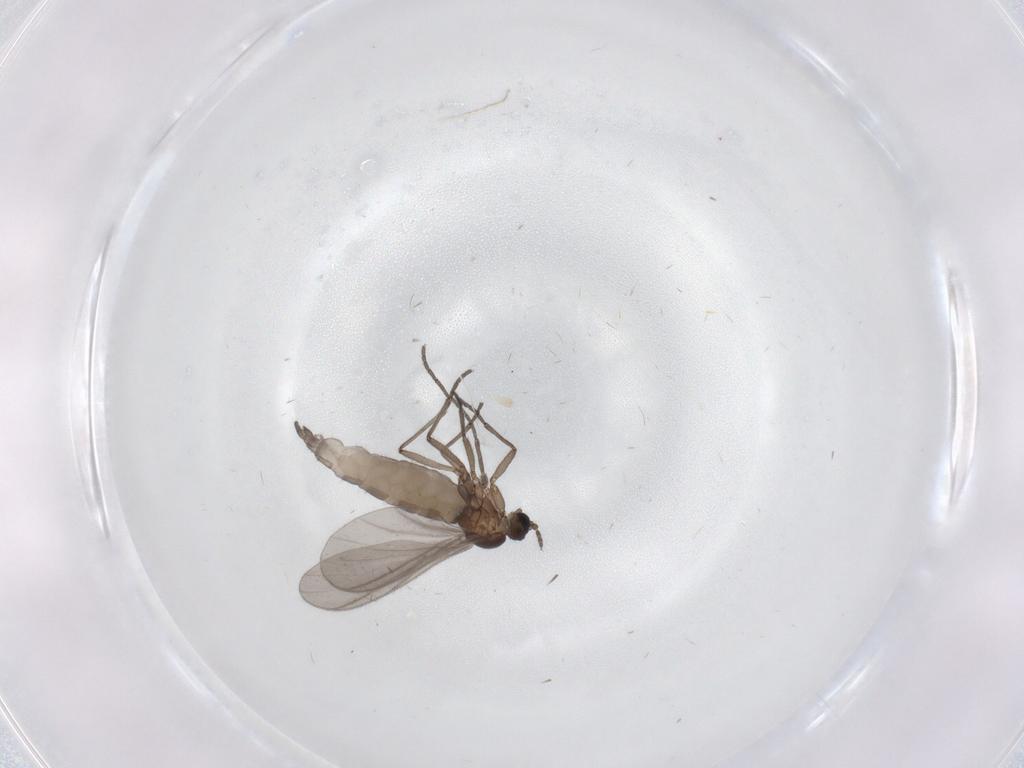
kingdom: Animalia
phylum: Arthropoda
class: Insecta
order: Diptera
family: Sciaridae
